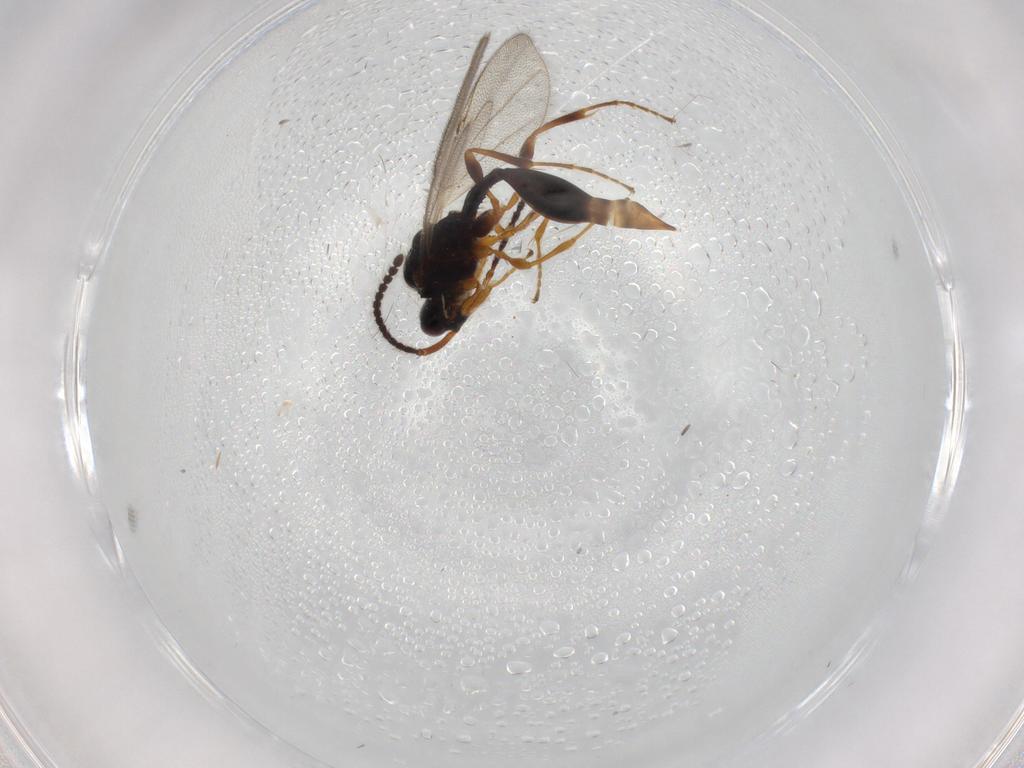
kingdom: Animalia
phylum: Arthropoda
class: Insecta
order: Hymenoptera
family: Diapriidae
